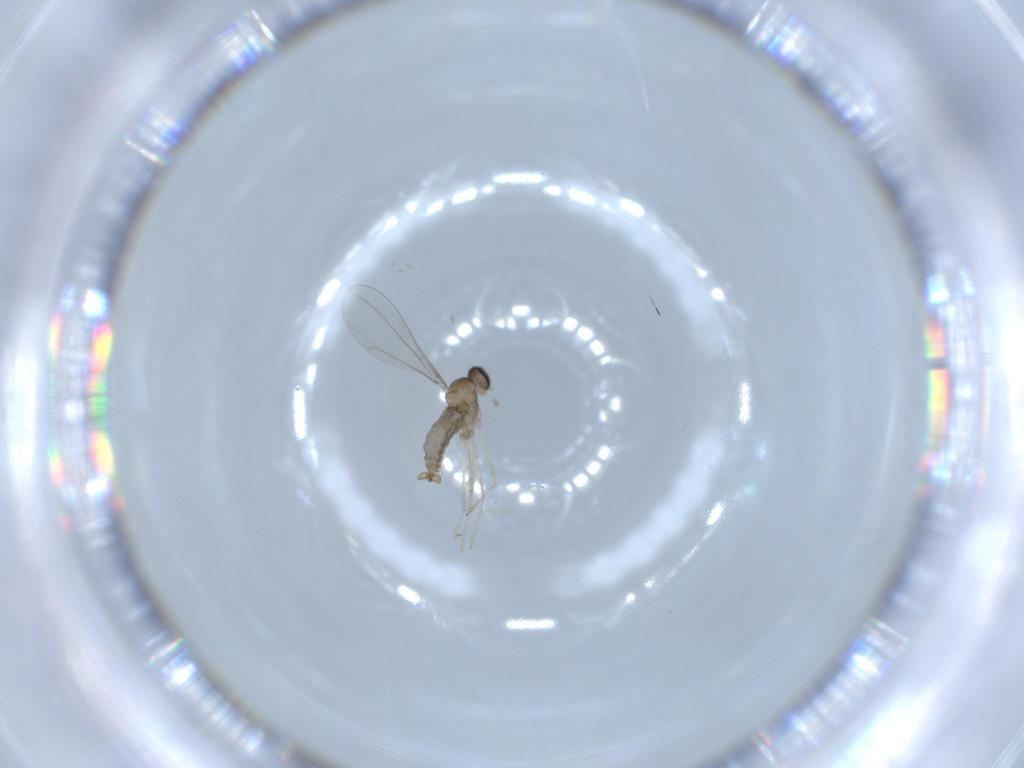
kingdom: Animalia
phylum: Arthropoda
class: Insecta
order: Diptera
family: Cecidomyiidae
